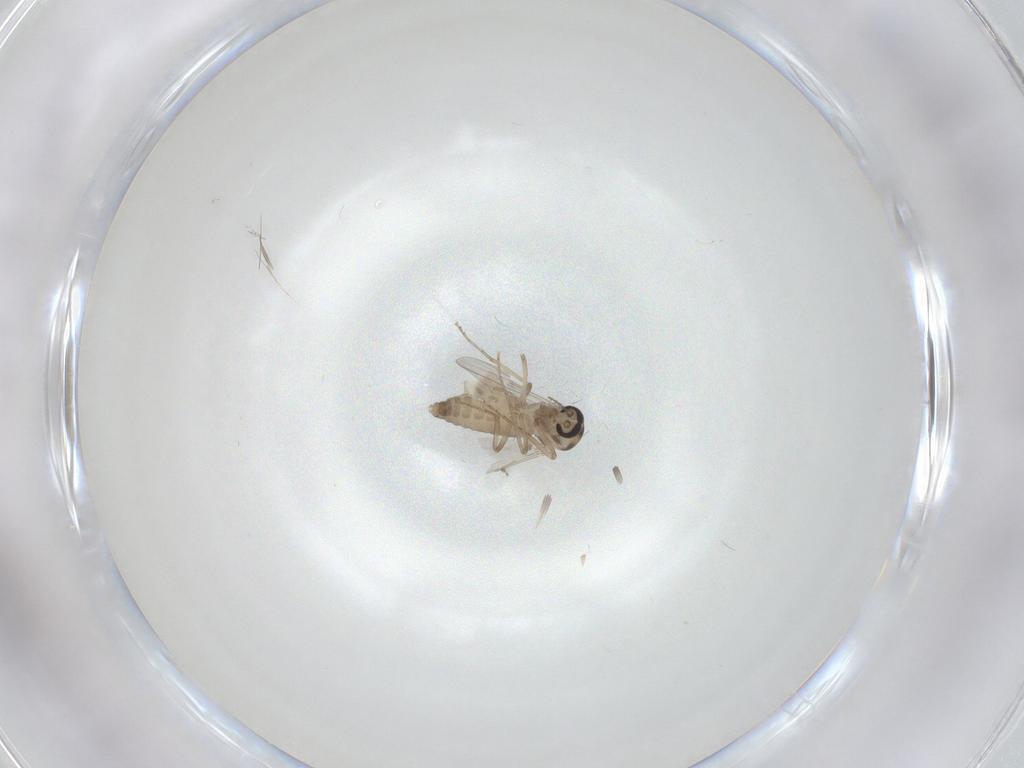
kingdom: Animalia
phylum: Arthropoda
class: Insecta
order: Diptera
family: Ceratopogonidae
